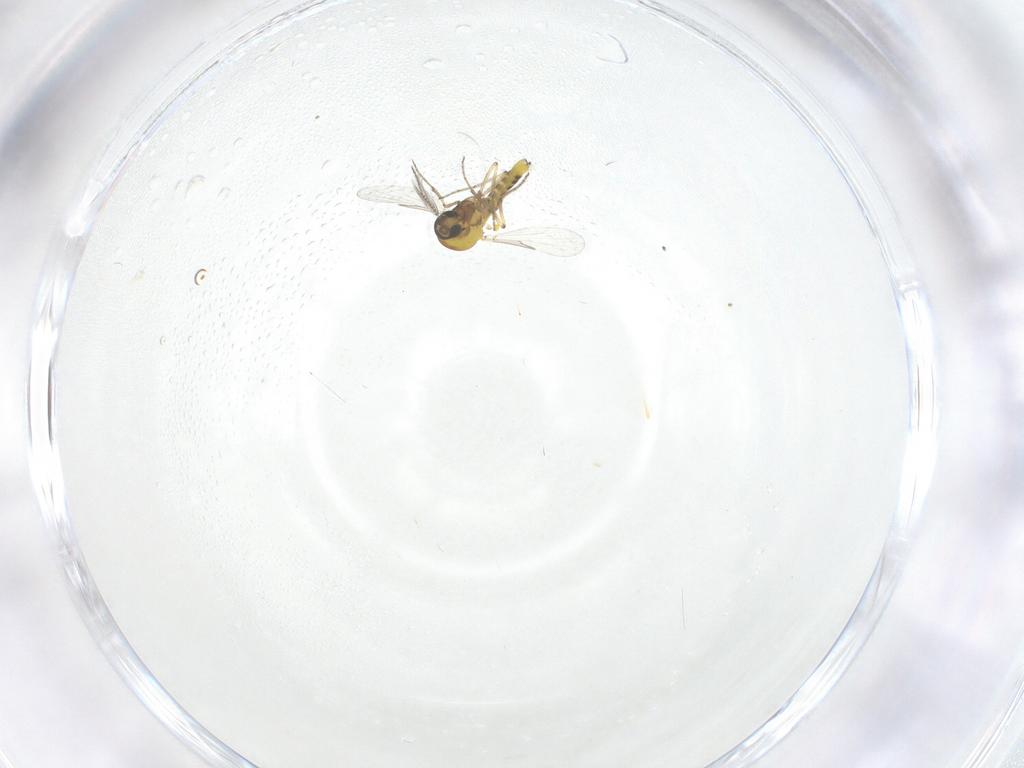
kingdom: Animalia
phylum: Arthropoda
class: Insecta
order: Diptera
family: Ceratopogonidae
